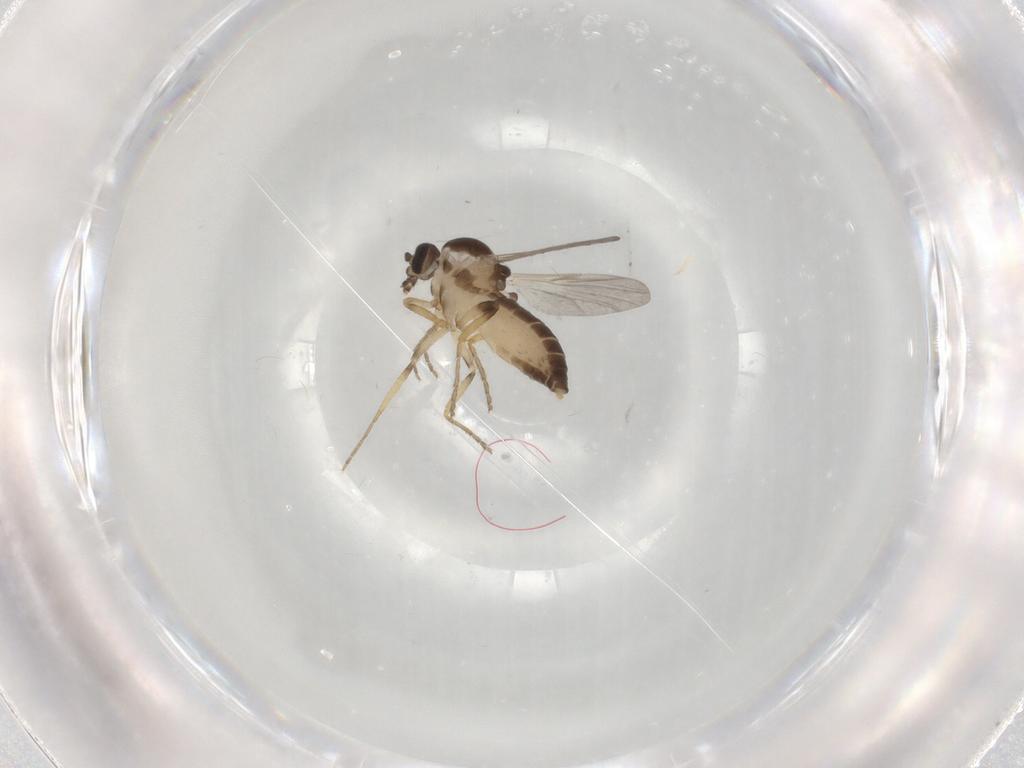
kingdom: Animalia
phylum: Arthropoda
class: Insecta
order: Diptera
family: Ceratopogonidae
